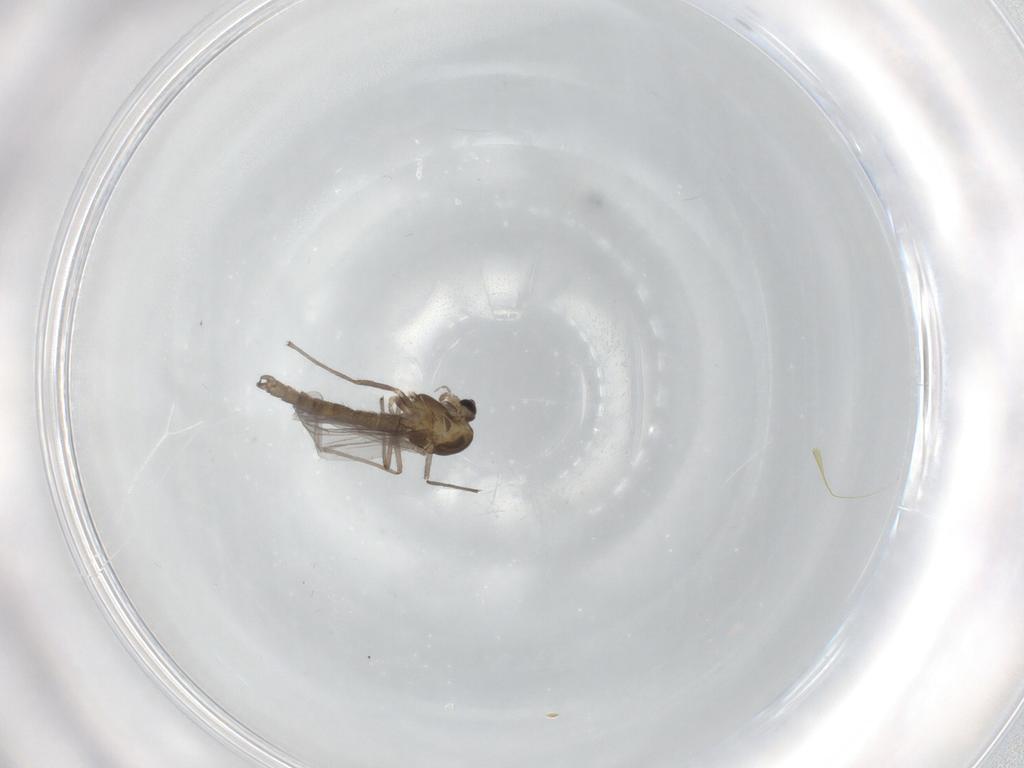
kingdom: Animalia
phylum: Arthropoda
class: Insecta
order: Diptera
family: Chironomidae
